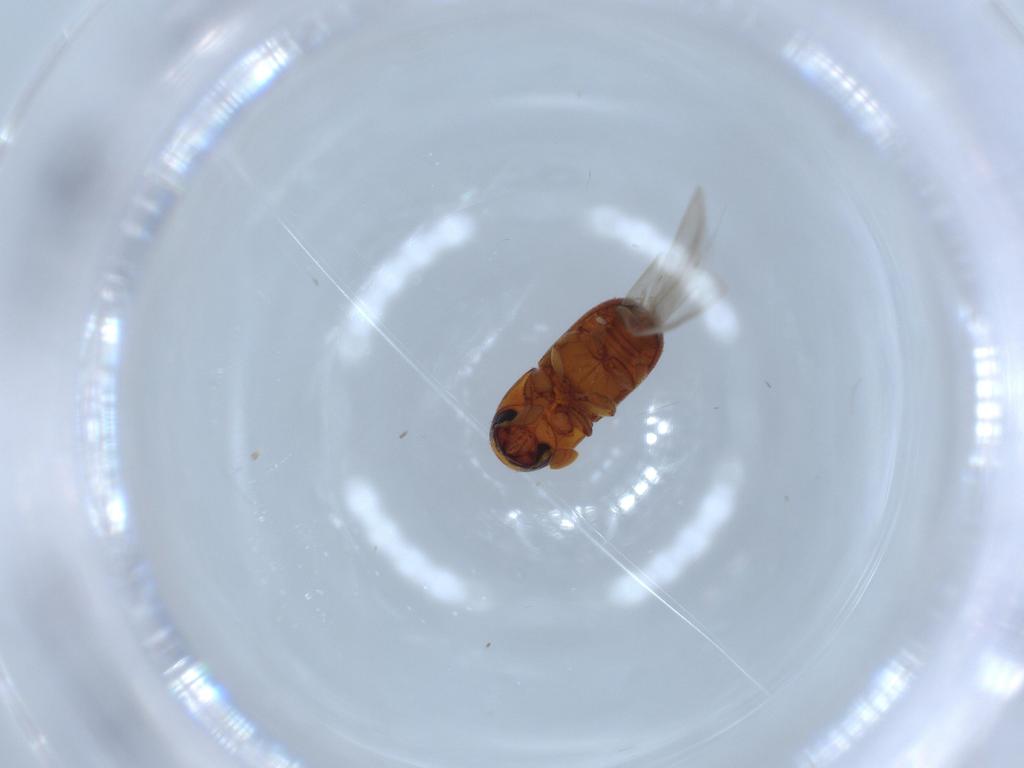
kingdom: Animalia
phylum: Arthropoda
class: Insecta
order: Coleoptera
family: Curculionidae
